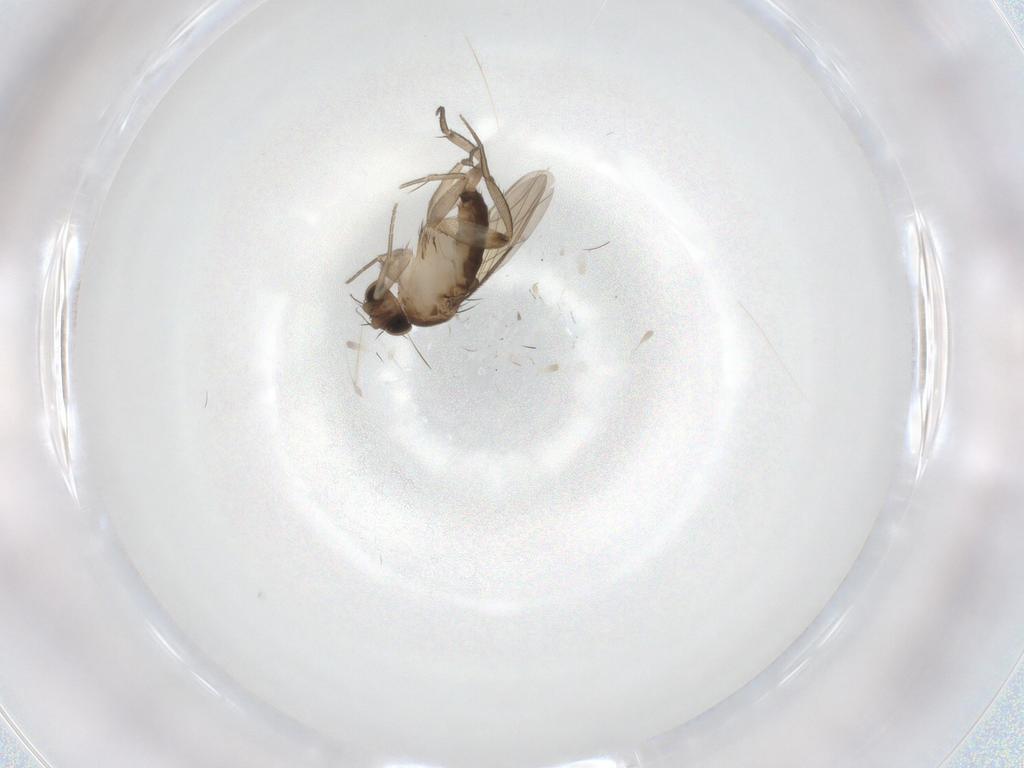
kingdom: Animalia
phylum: Arthropoda
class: Insecta
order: Diptera
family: Phoridae
